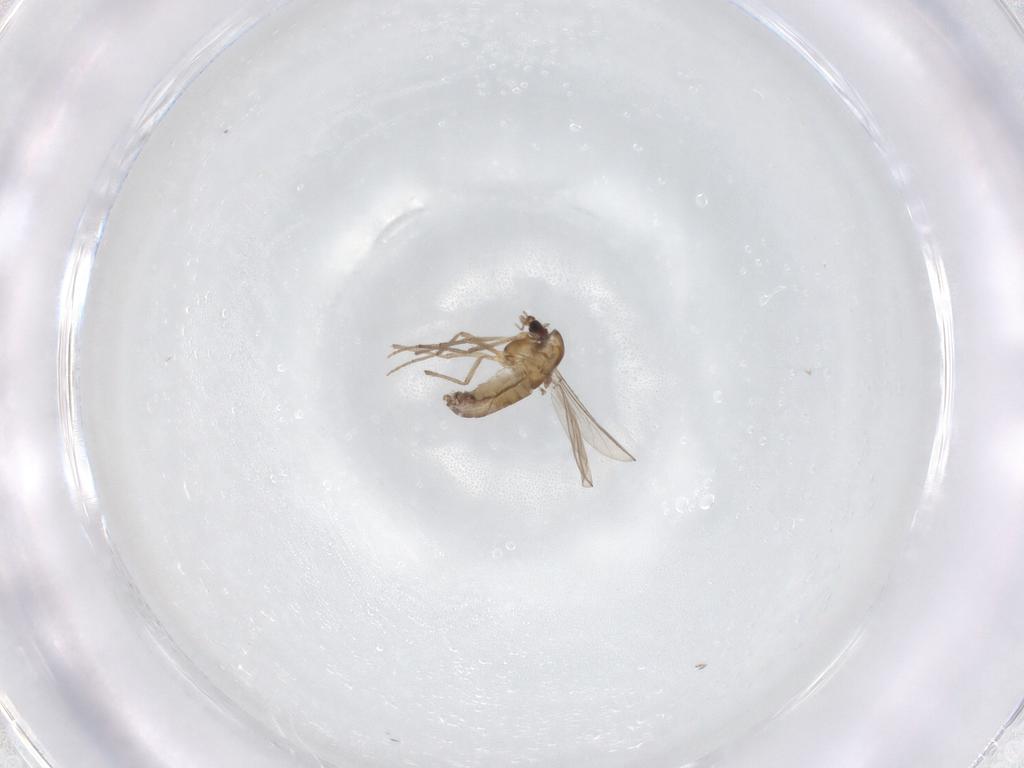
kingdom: Animalia
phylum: Arthropoda
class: Insecta
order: Diptera
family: Chironomidae
